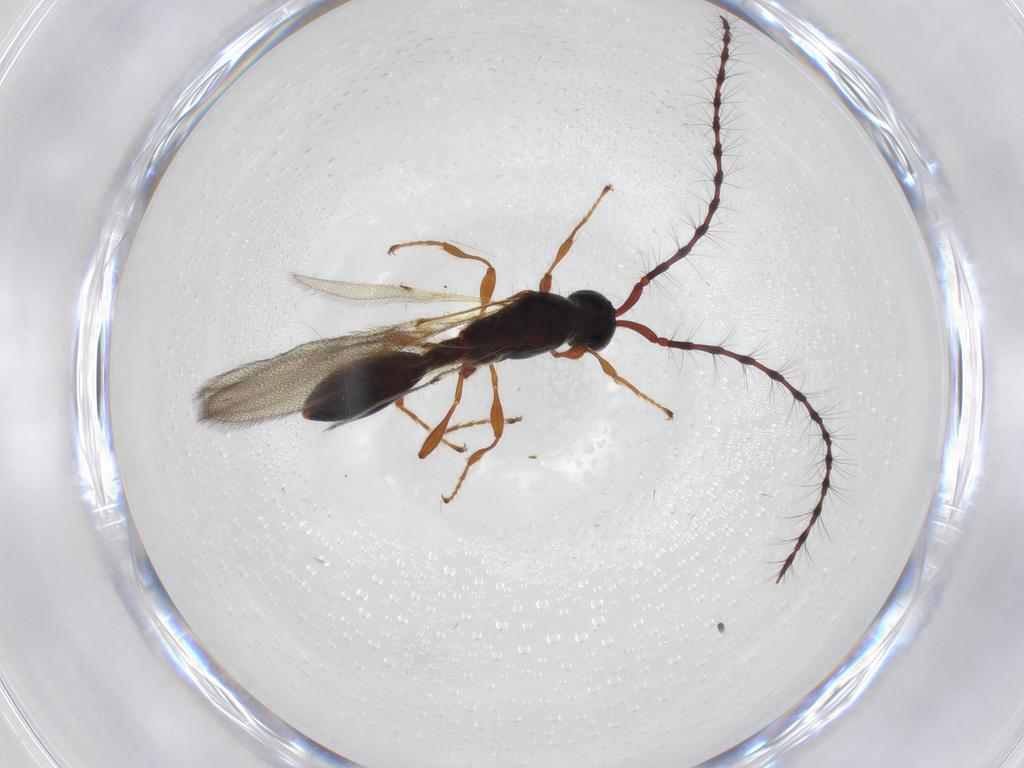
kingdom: Animalia
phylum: Arthropoda
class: Insecta
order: Hymenoptera
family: Diapriidae
